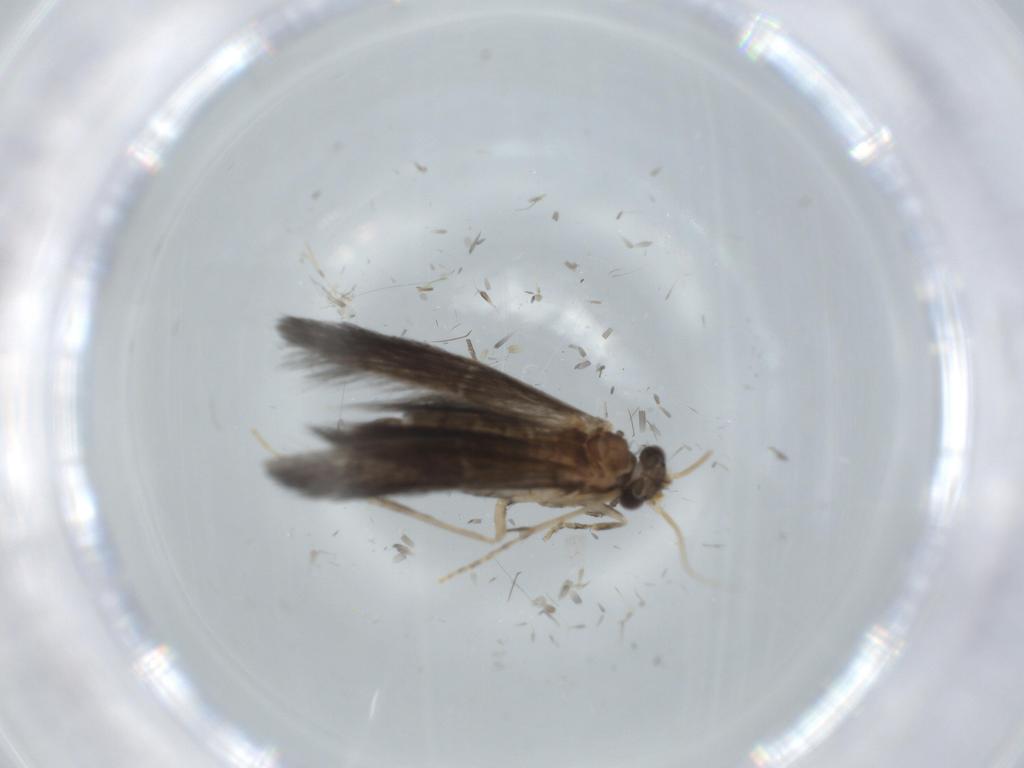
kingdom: Animalia
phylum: Arthropoda
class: Insecta
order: Trichoptera
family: Hydroptilidae
